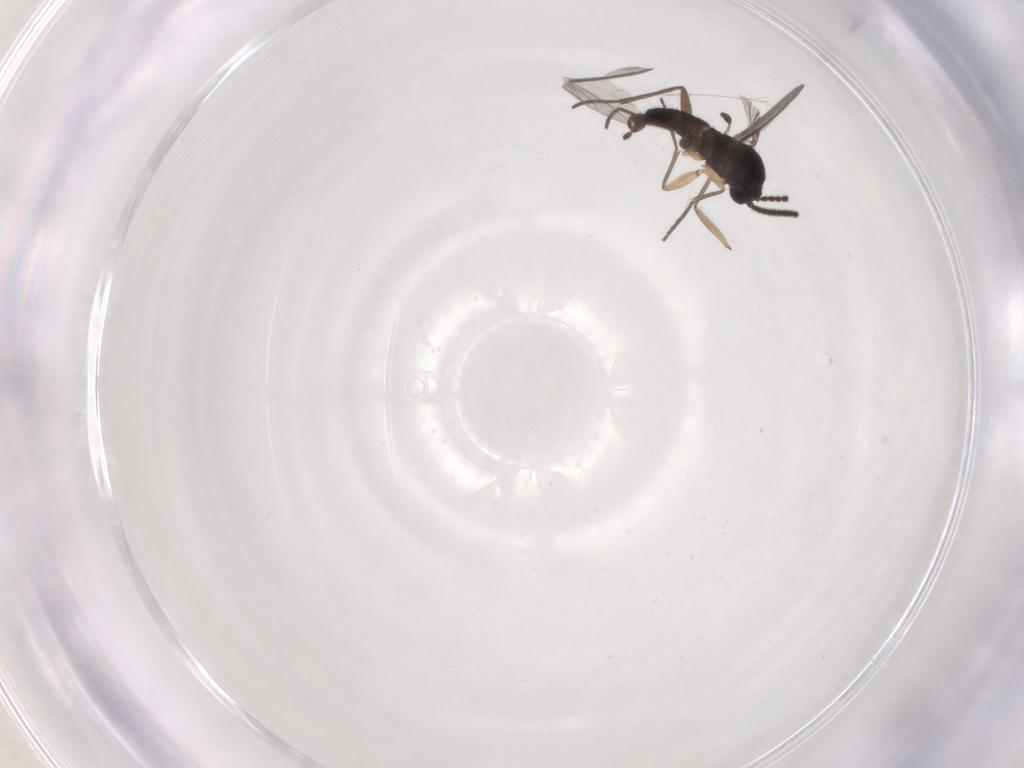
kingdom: Animalia
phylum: Arthropoda
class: Insecta
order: Diptera
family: Sciaridae
